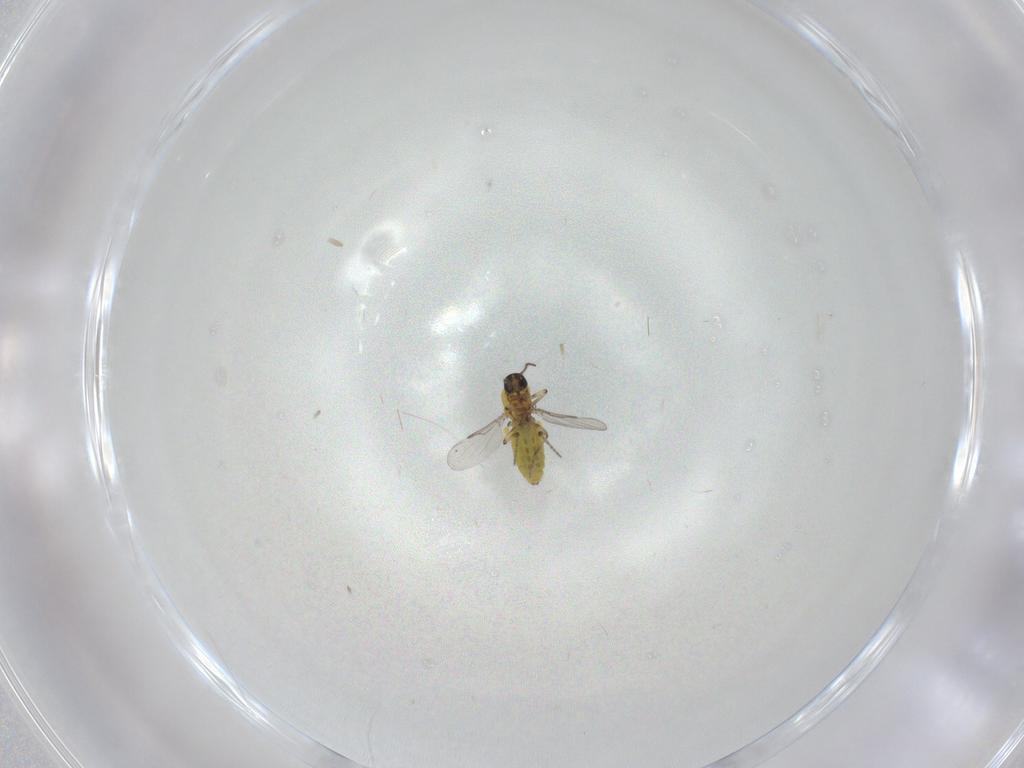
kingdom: Animalia
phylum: Arthropoda
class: Insecta
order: Diptera
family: Ceratopogonidae
